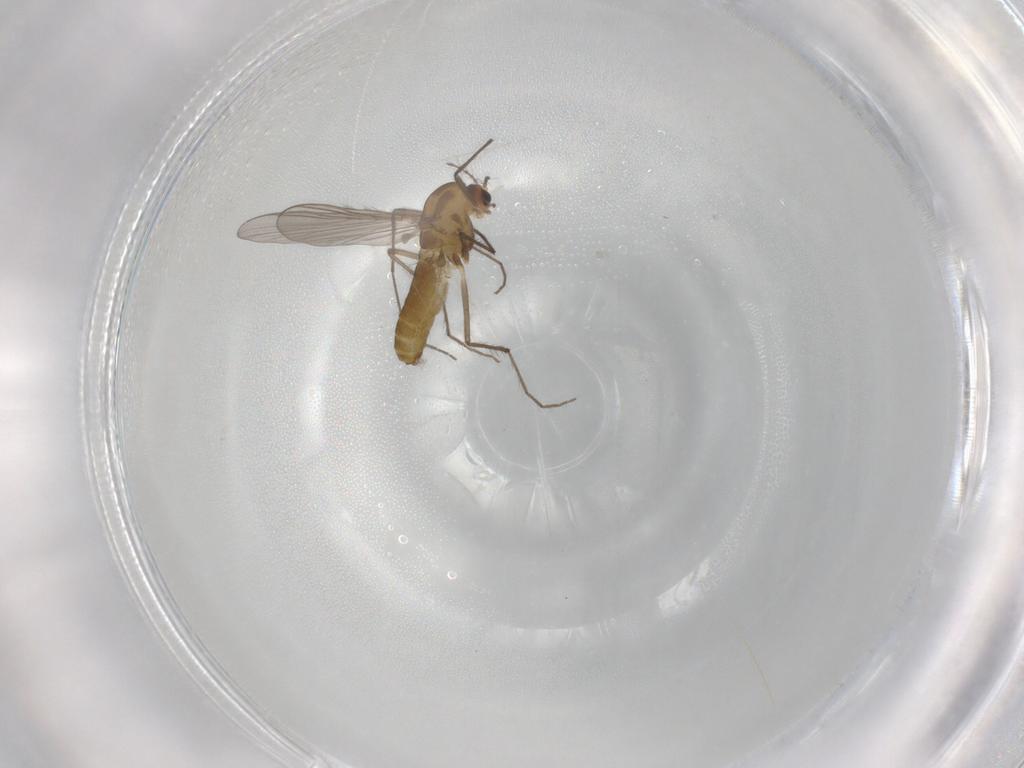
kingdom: Animalia
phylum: Arthropoda
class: Insecta
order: Diptera
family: Chironomidae
